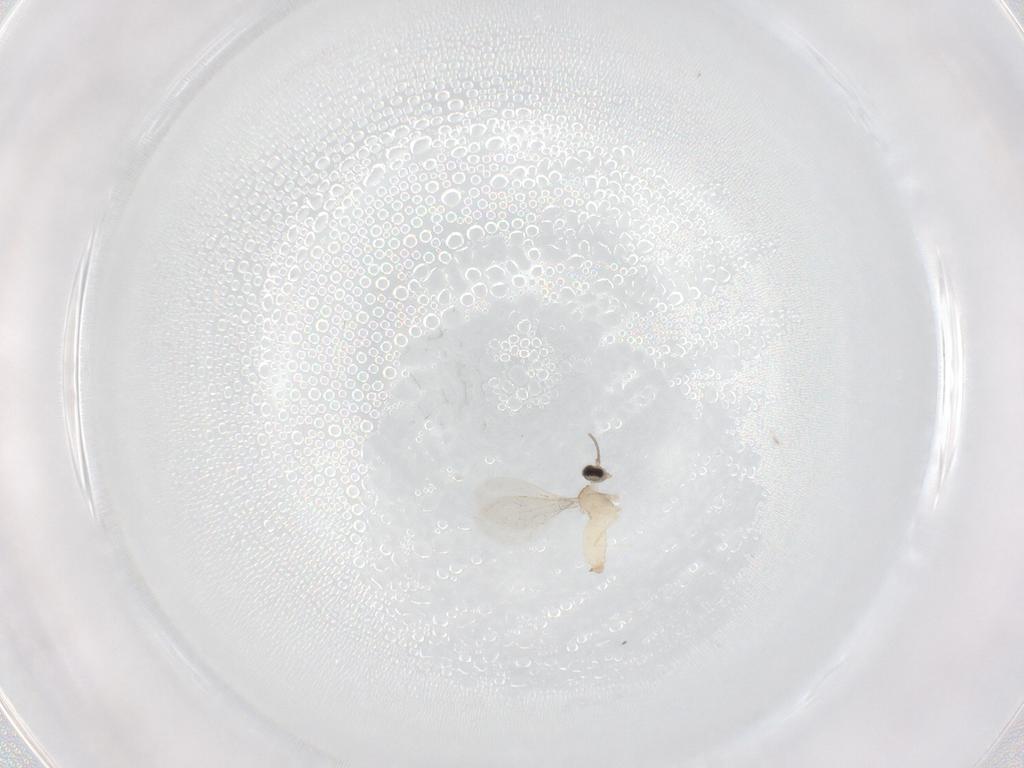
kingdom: Animalia
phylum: Arthropoda
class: Insecta
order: Diptera
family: Cecidomyiidae
